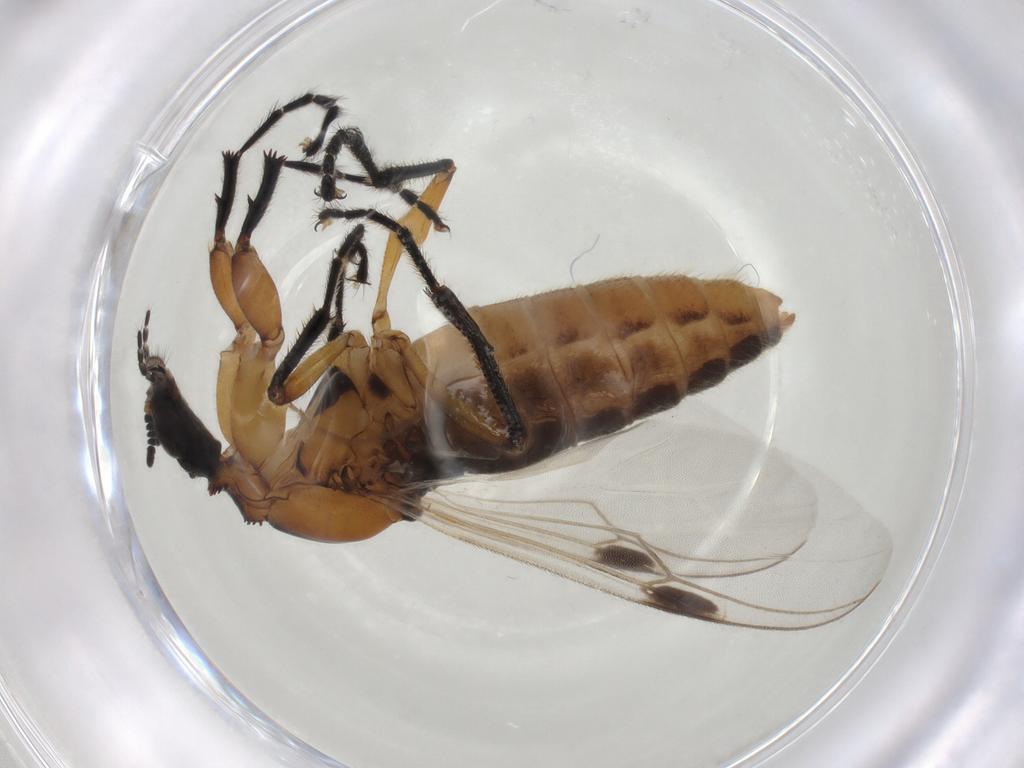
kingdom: Animalia
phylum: Arthropoda
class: Insecta
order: Diptera
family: Bibionidae
